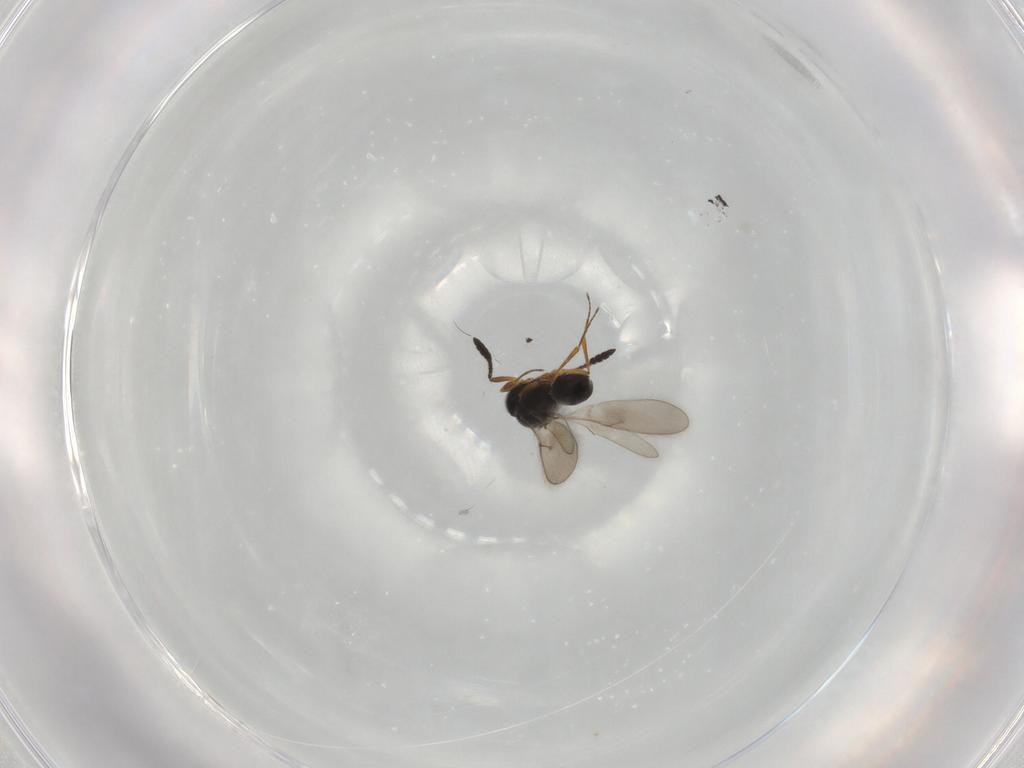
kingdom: Animalia
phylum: Arthropoda
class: Insecta
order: Hymenoptera
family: Scelionidae
